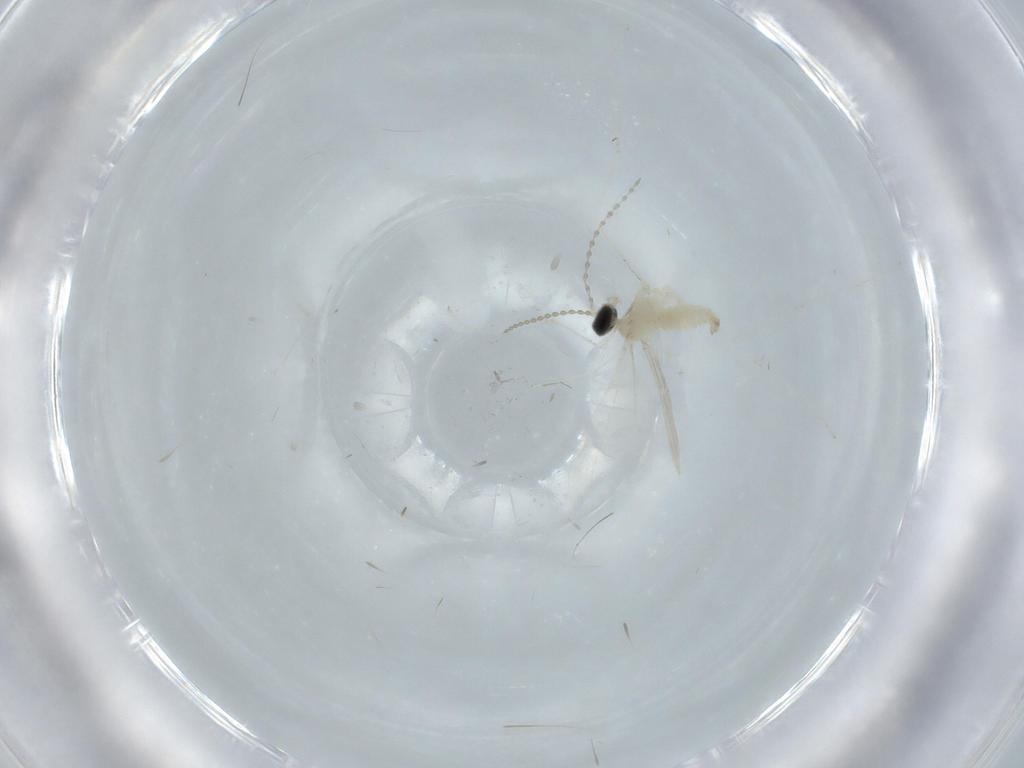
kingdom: Animalia
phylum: Arthropoda
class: Insecta
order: Diptera
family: Cecidomyiidae
